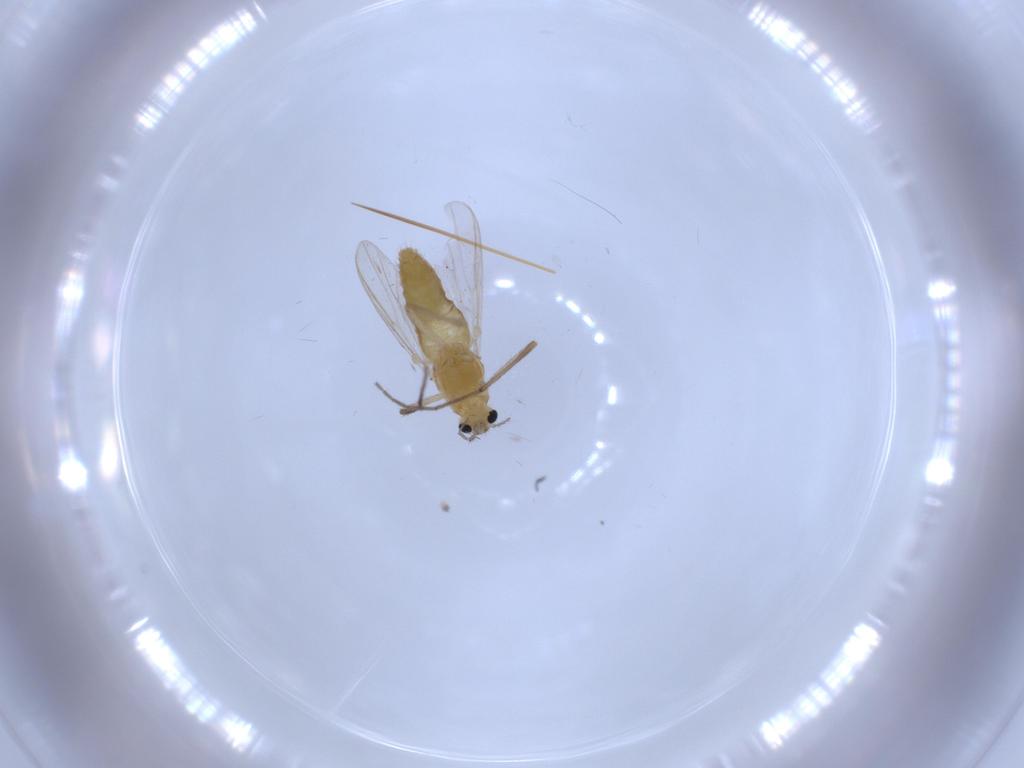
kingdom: Animalia
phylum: Arthropoda
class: Insecta
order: Diptera
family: Chironomidae
